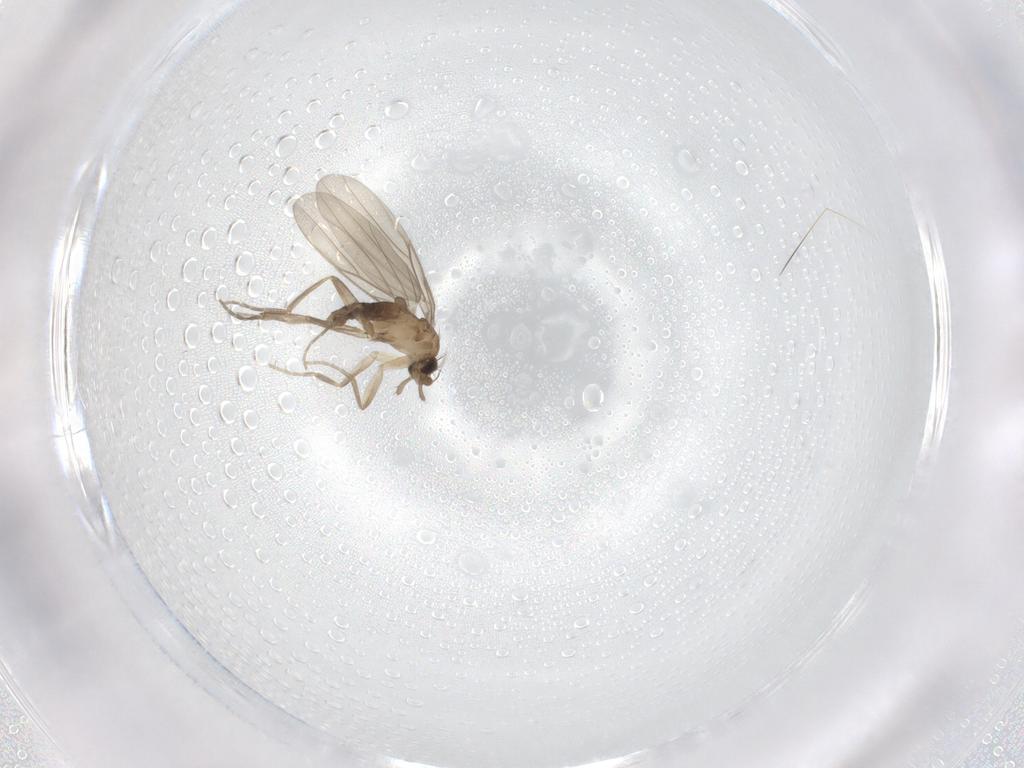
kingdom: Animalia
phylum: Arthropoda
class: Insecta
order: Diptera
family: Phoridae
